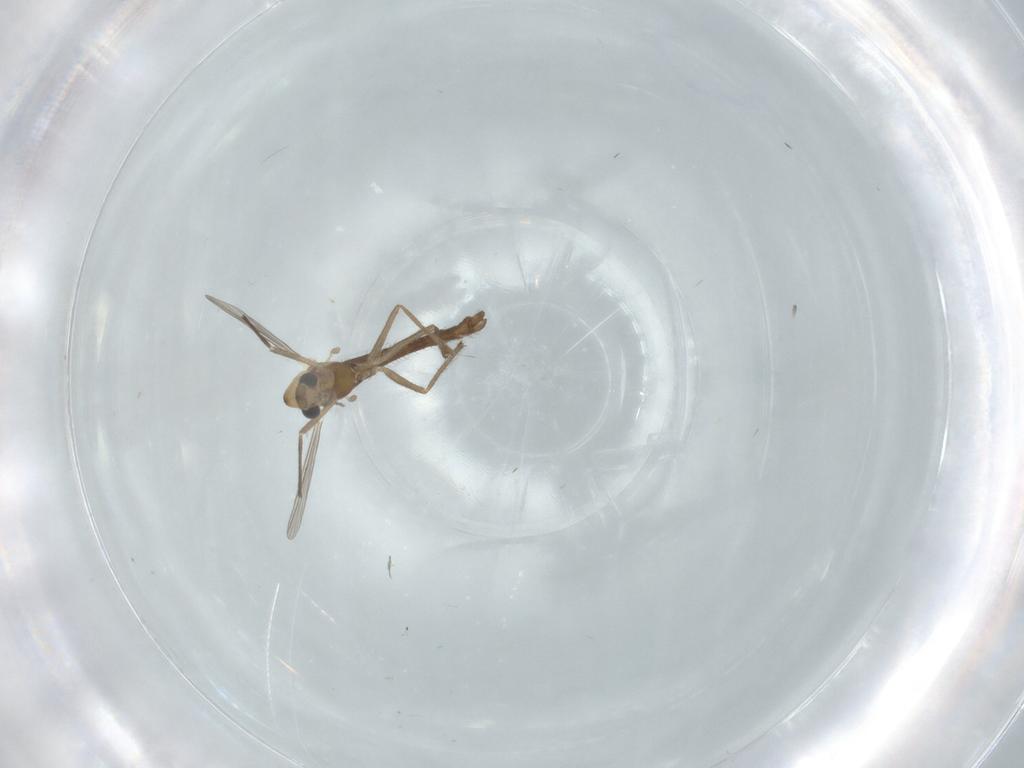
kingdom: Animalia
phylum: Arthropoda
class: Insecta
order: Diptera
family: Chironomidae
